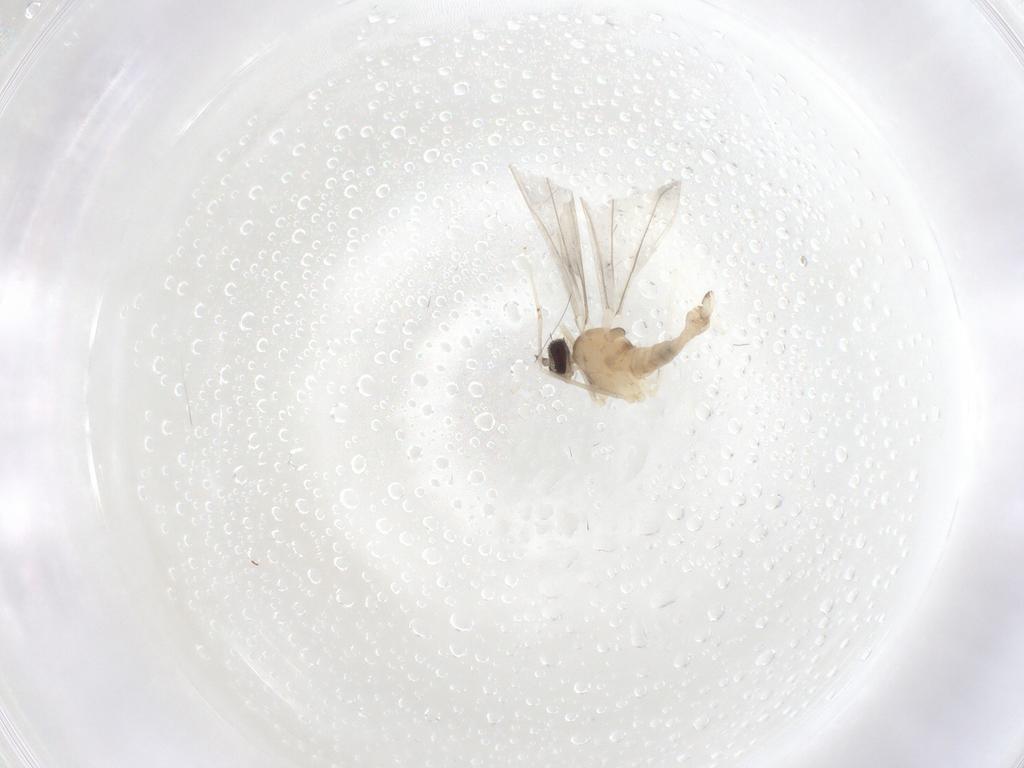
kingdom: Animalia
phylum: Arthropoda
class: Insecta
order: Diptera
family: Cecidomyiidae
